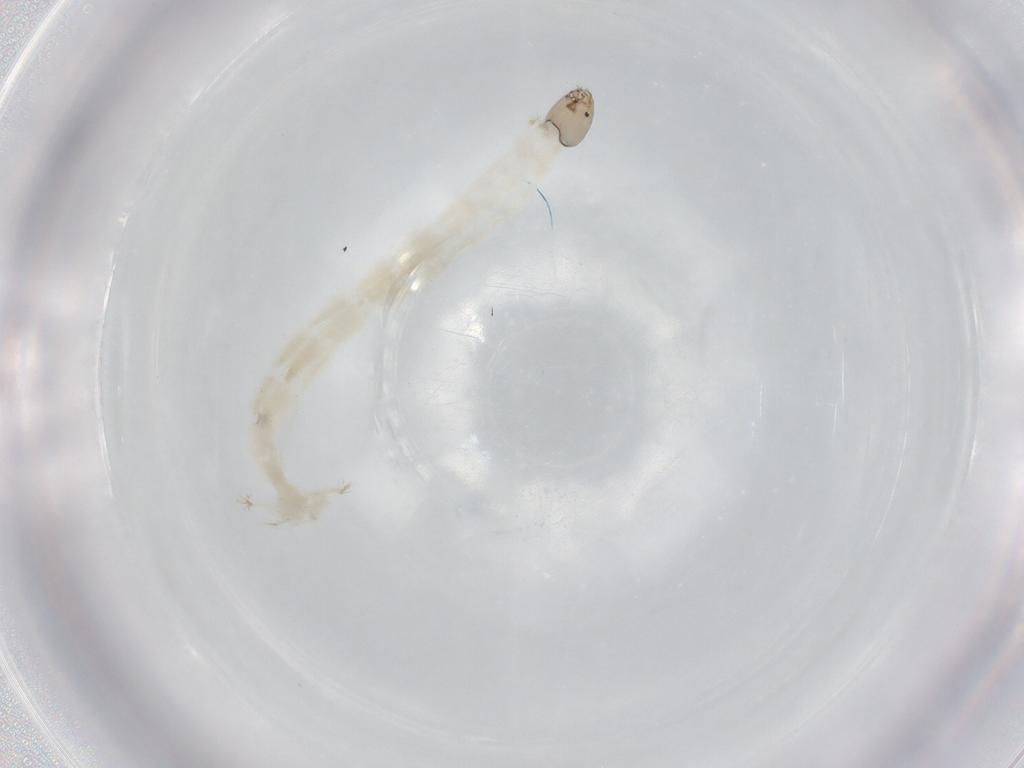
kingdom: Animalia
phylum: Arthropoda
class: Insecta
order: Diptera
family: Chironomidae
